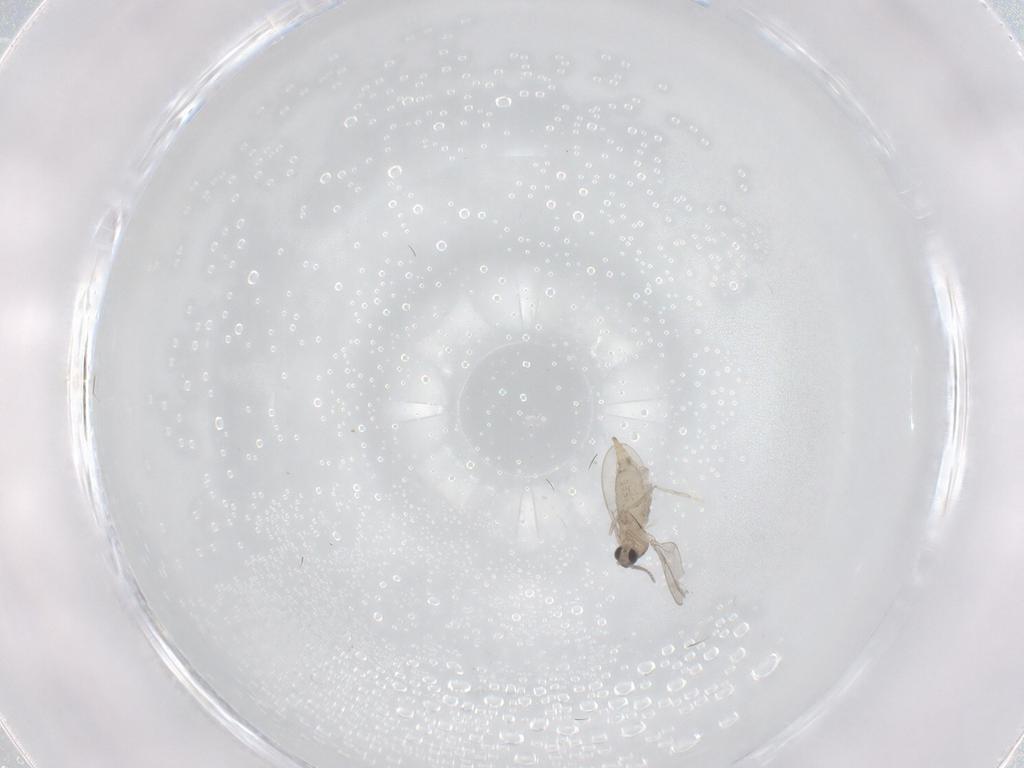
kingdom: Animalia
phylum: Arthropoda
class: Insecta
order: Diptera
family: Cecidomyiidae
